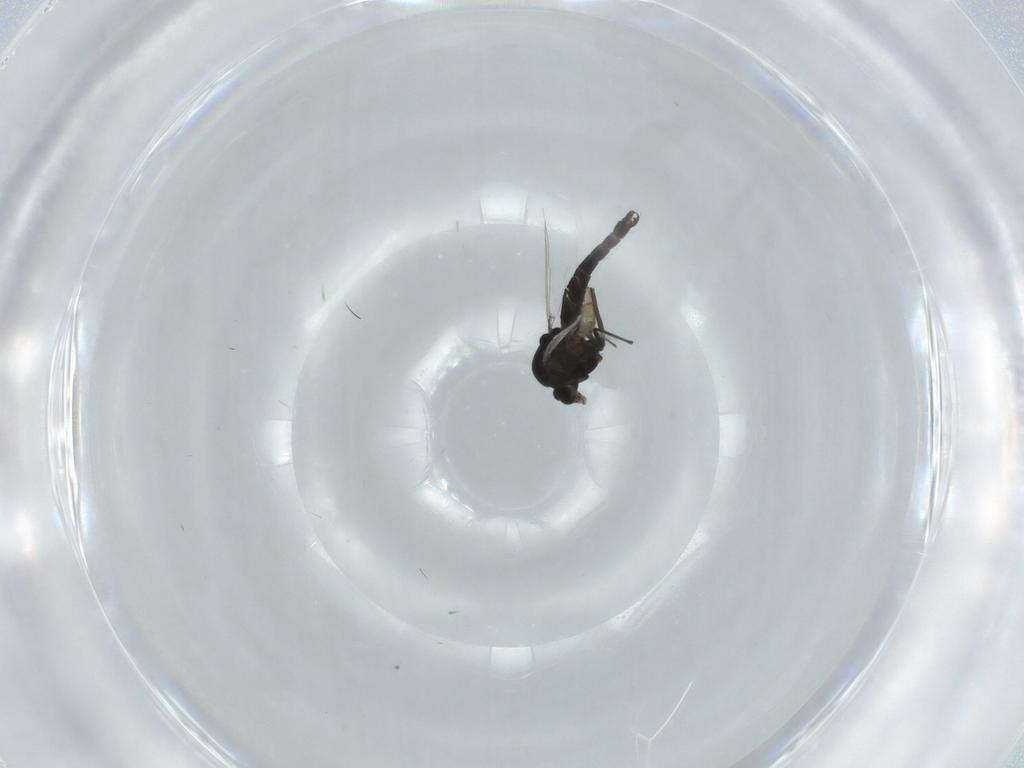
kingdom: Animalia
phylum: Arthropoda
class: Insecta
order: Diptera
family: Chironomidae
